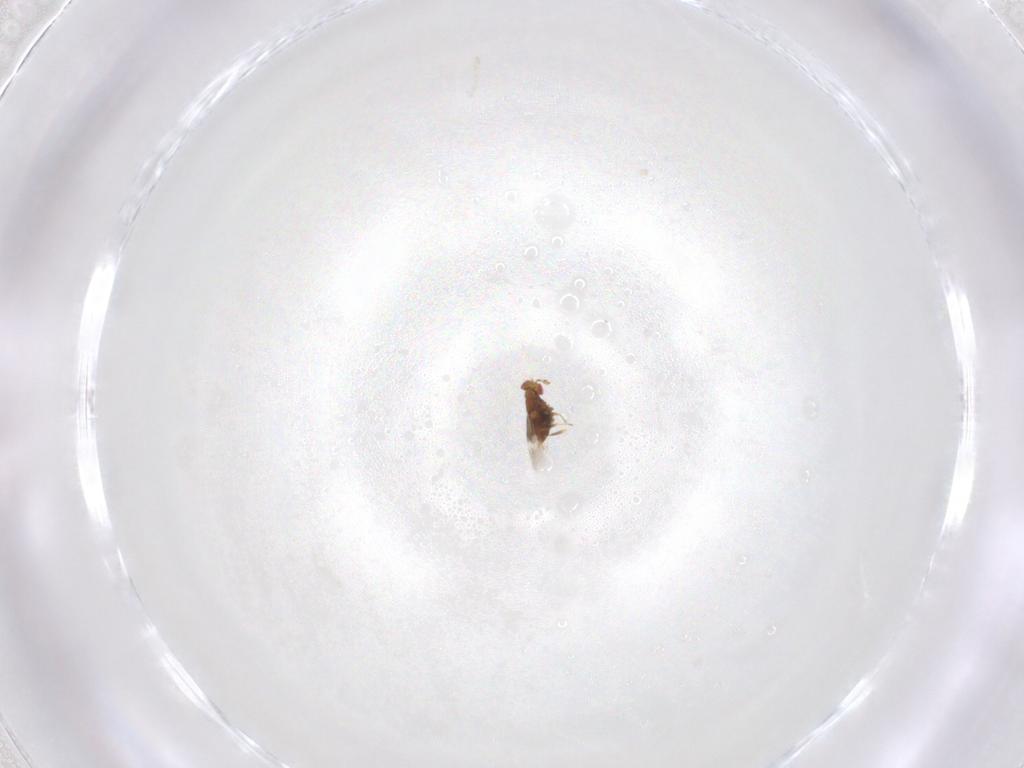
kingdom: Animalia
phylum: Arthropoda
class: Insecta
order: Hymenoptera
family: Trichogrammatidae
